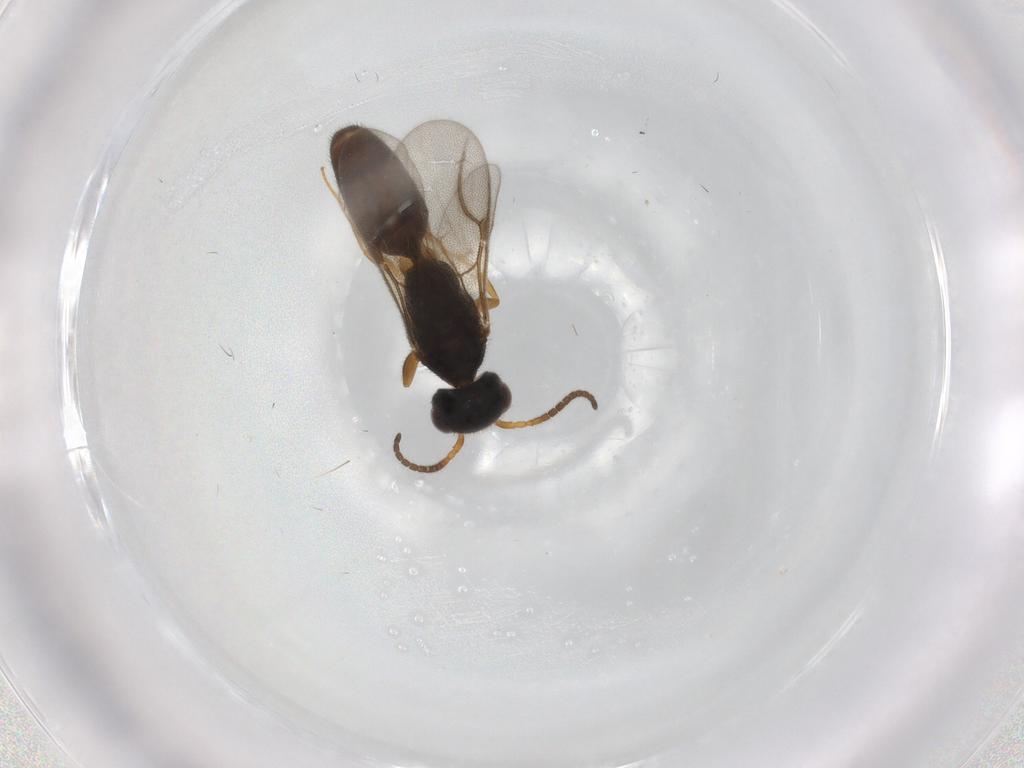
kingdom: Animalia
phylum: Arthropoda
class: Insecta
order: Hymenoptera
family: Bethylidae
